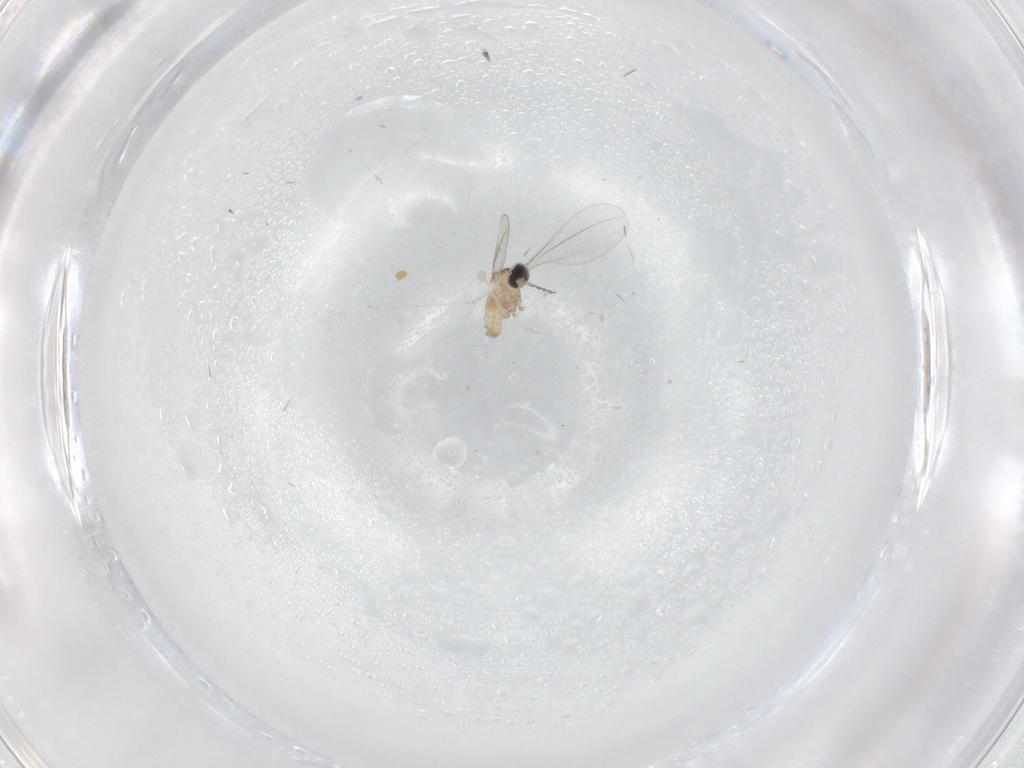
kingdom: Animalia
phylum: Arthropoda
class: Insecta
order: Diptera
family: Cecidomyiidae
